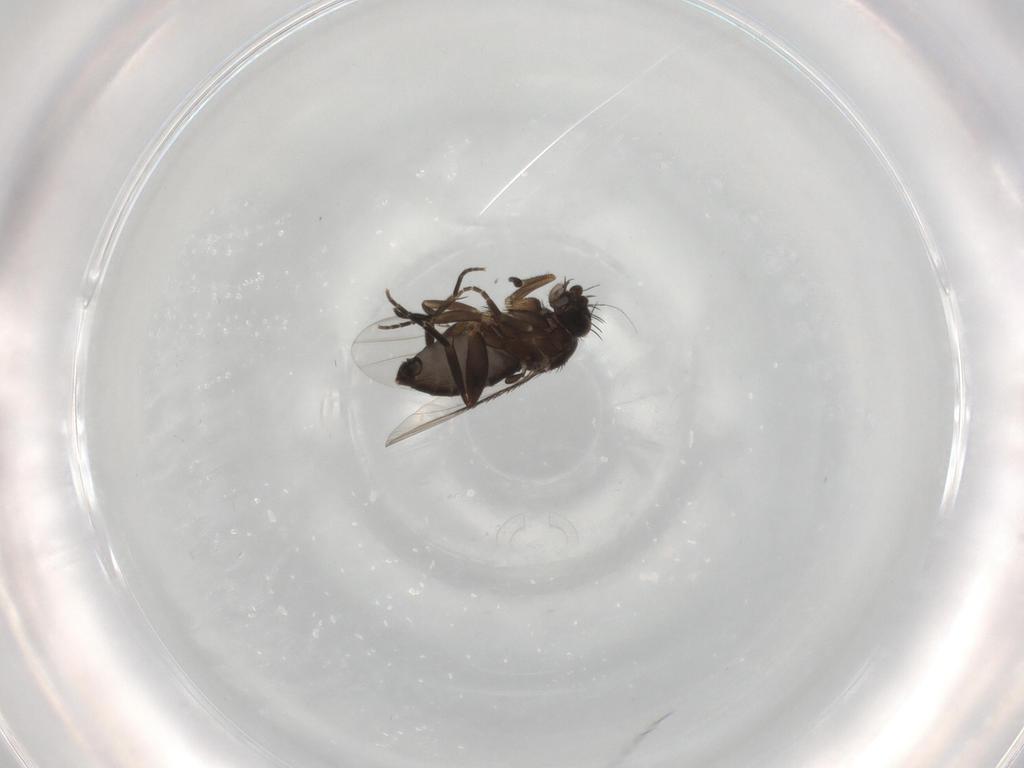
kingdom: Animalia
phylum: Arthropoda
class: Insecta
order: Diptera
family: Phoridae
